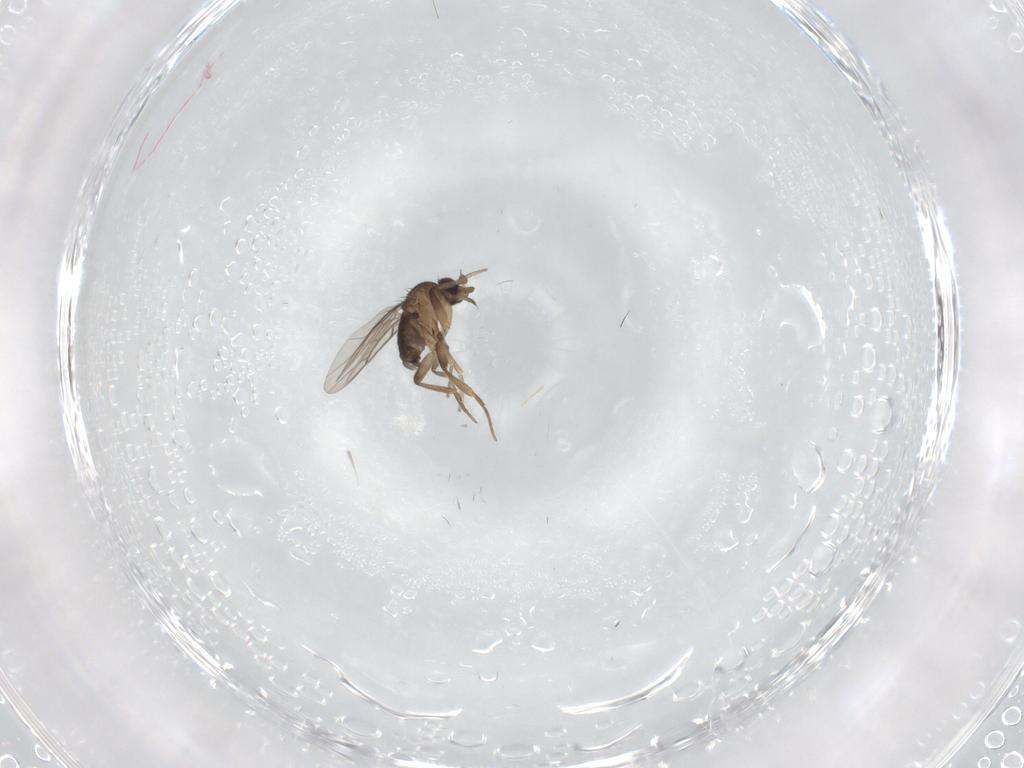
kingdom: Animalia
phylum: Arthropoda
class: Insecta
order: Diptera
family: Phoridae
